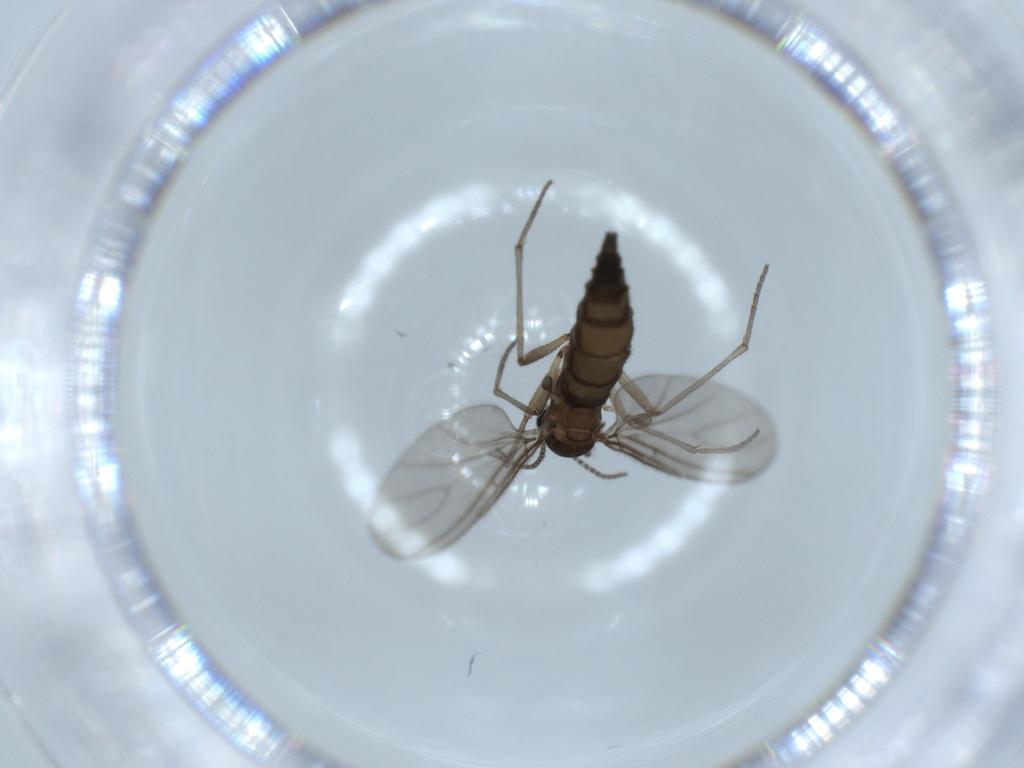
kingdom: Animalia
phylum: Arthropoda
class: Insecta
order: Diptera
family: Sciaridae
